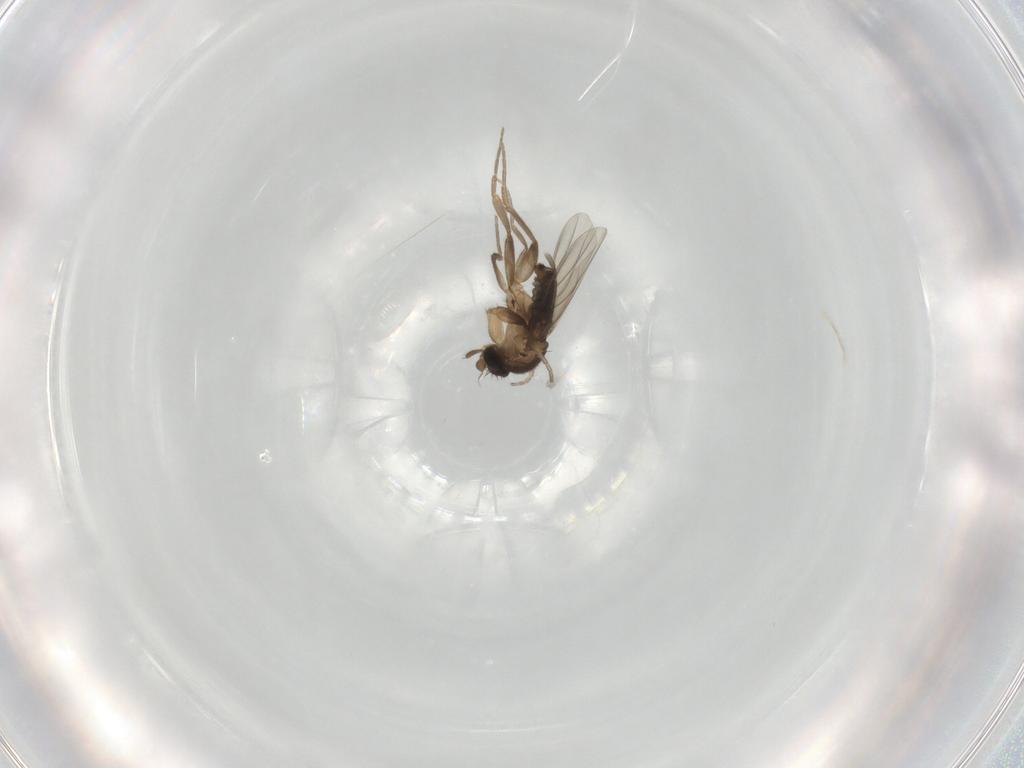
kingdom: Animalia
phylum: Arthropoda
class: Insecta
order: Diptera
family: Phoridae
